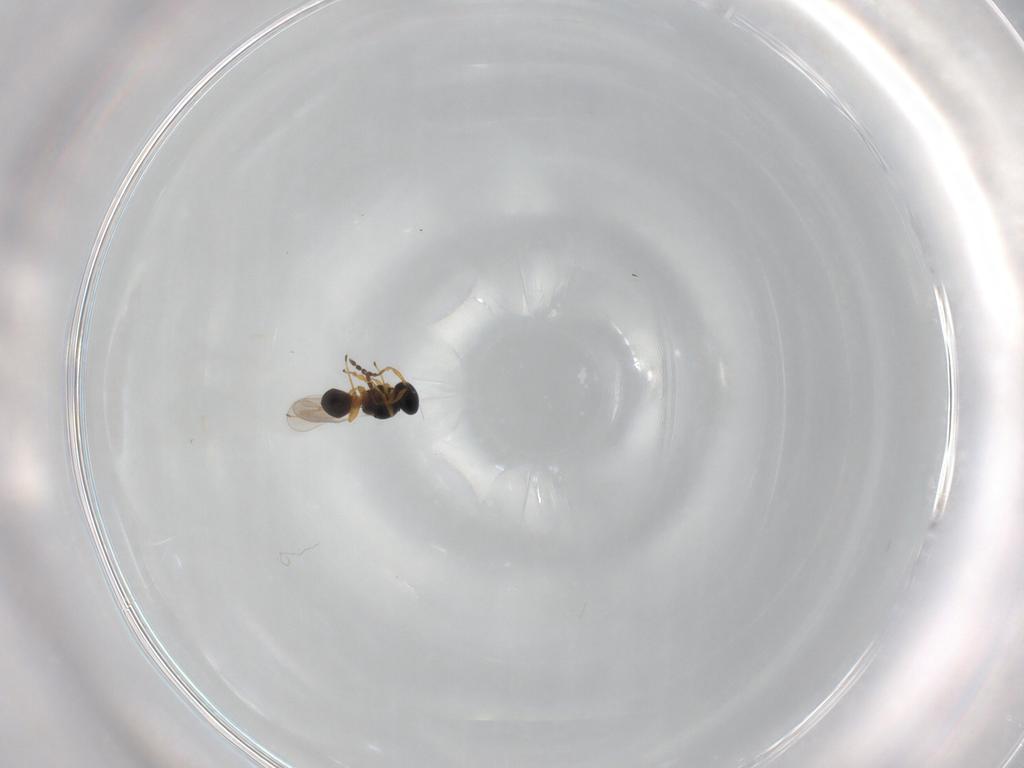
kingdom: Animalia
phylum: Arthropoda
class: Insecta
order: Hymenoptera
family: Platygastridae
